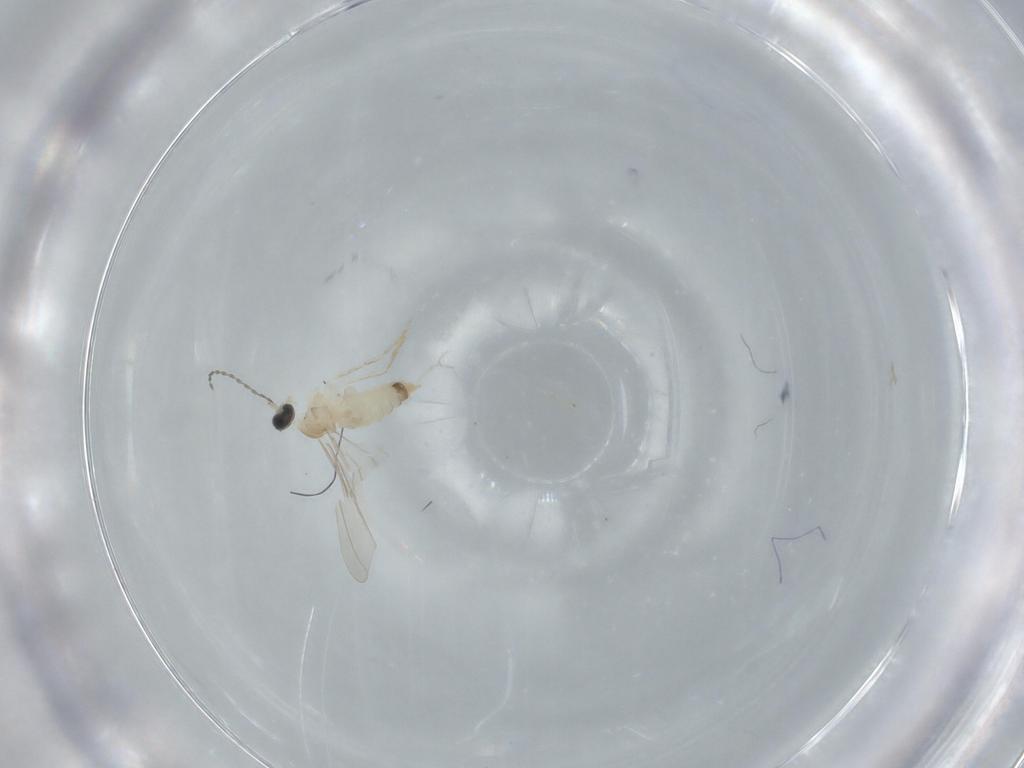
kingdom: Animalia
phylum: Arthropoda
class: Insecta
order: Diptera
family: Cecidomyiidae
